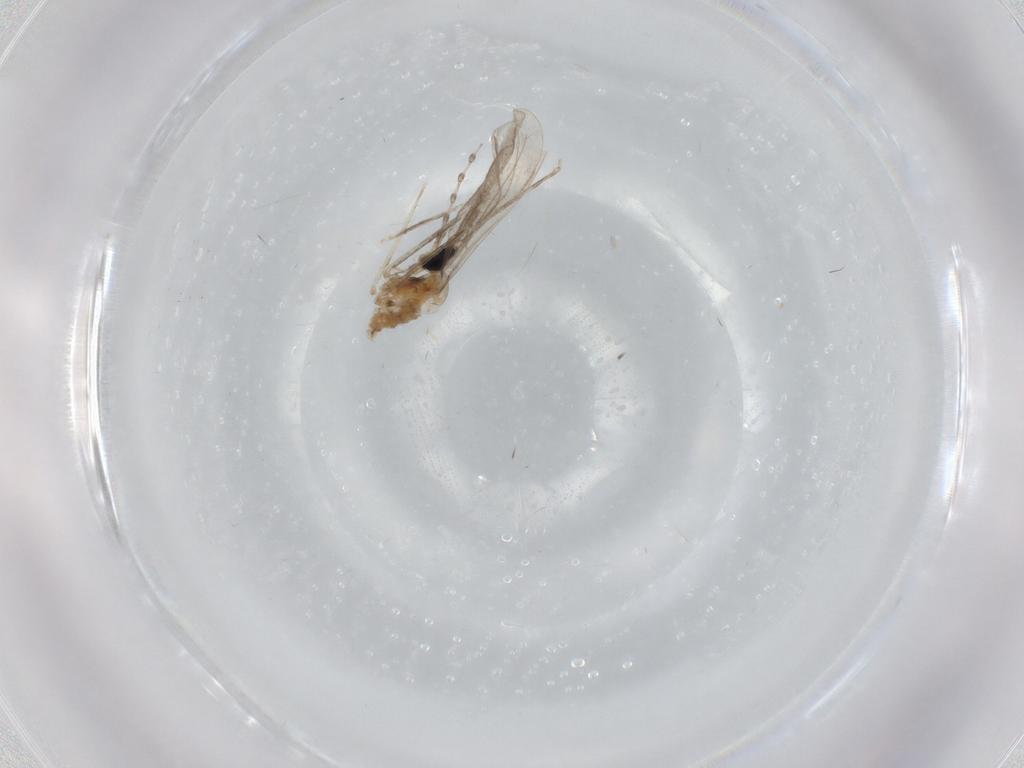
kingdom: Animalia
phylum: Arthropoda
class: Insecta
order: Diptera
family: Cecidomyiidae
